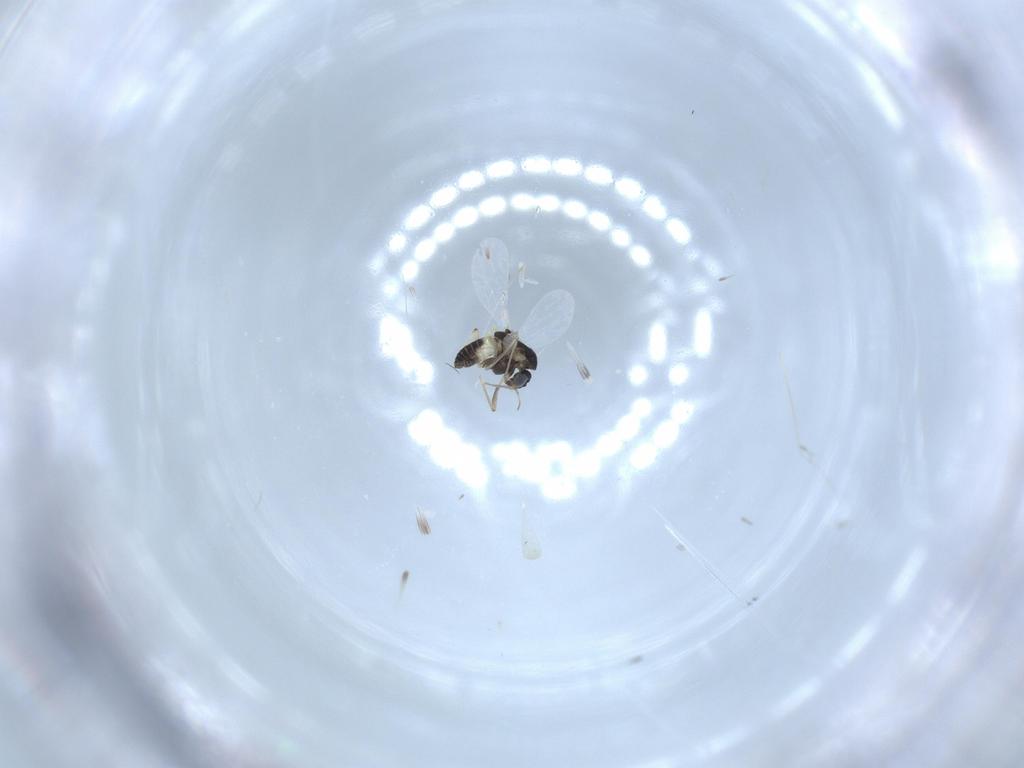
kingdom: Animalia
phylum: Arthropoda
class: Insecta
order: Diptera
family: Chironomidae
